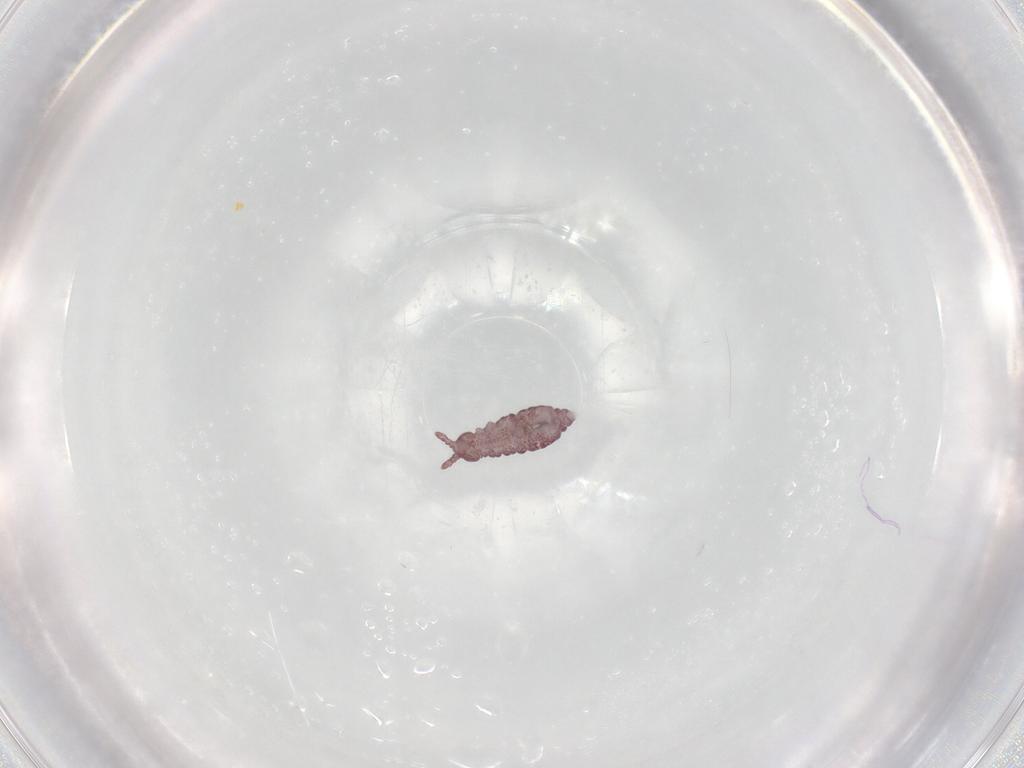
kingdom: Animalia
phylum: Arthropoda
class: Collembola
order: Poduromorpha
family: Hypogastruridae
